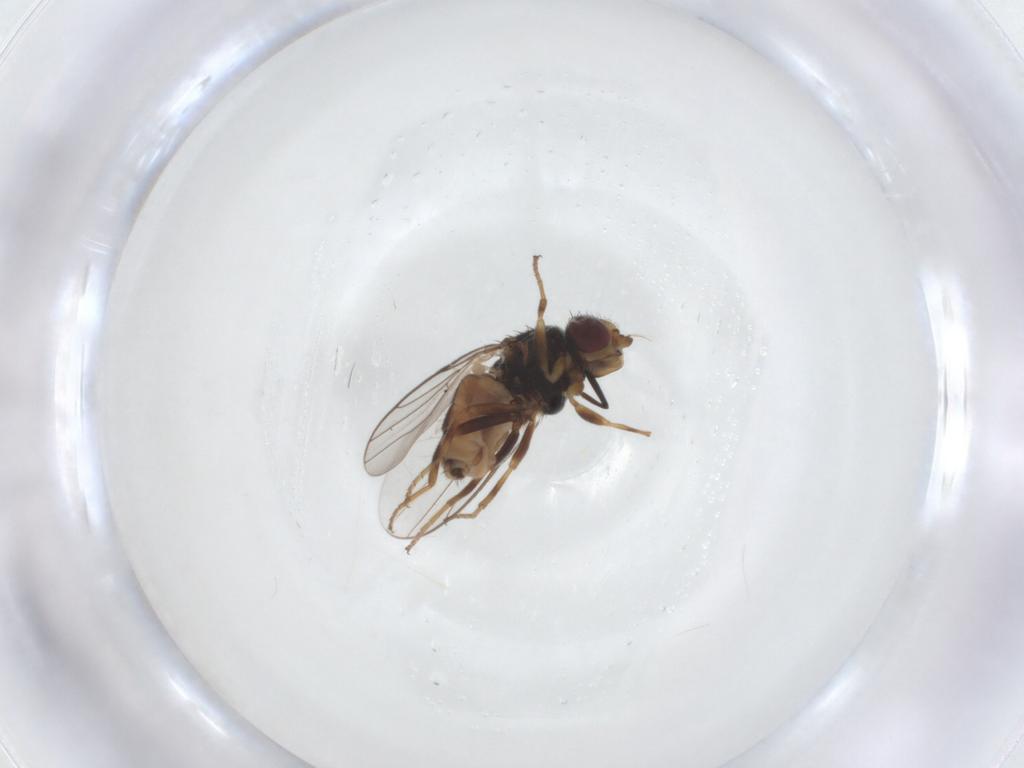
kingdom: Animalia
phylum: Arthropoda
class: Insecta
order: Diptera
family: Chloropidae
